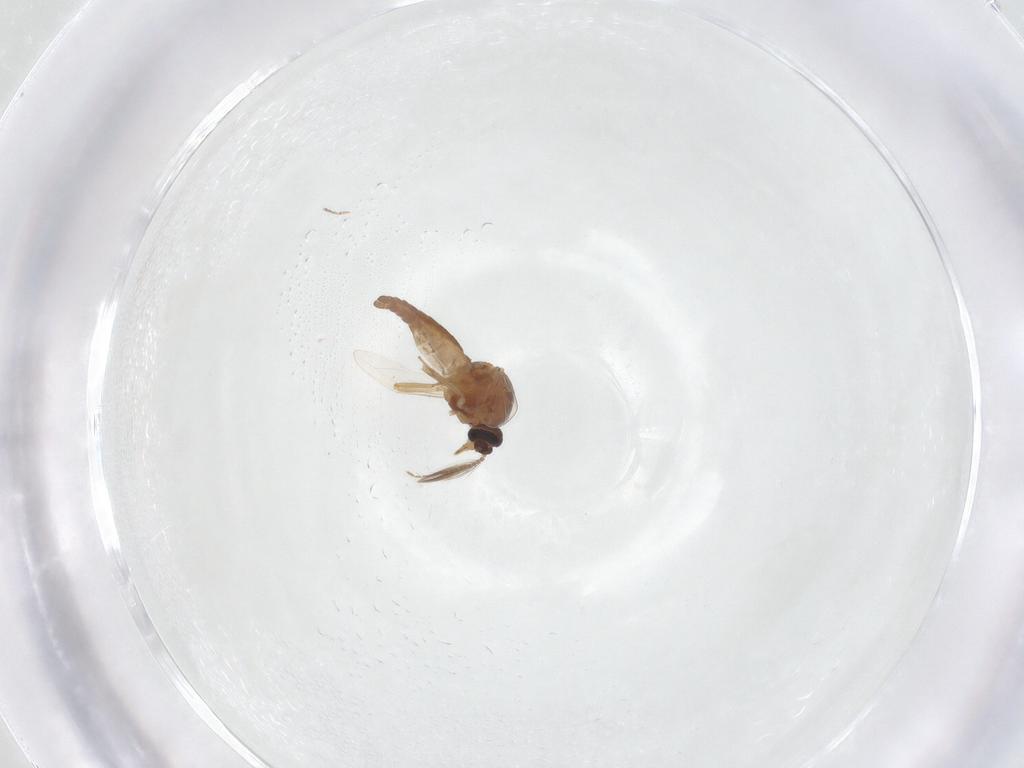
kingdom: Animalia
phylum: Arthropoda
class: Insecta
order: Diptera
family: Ceratopogonidae
